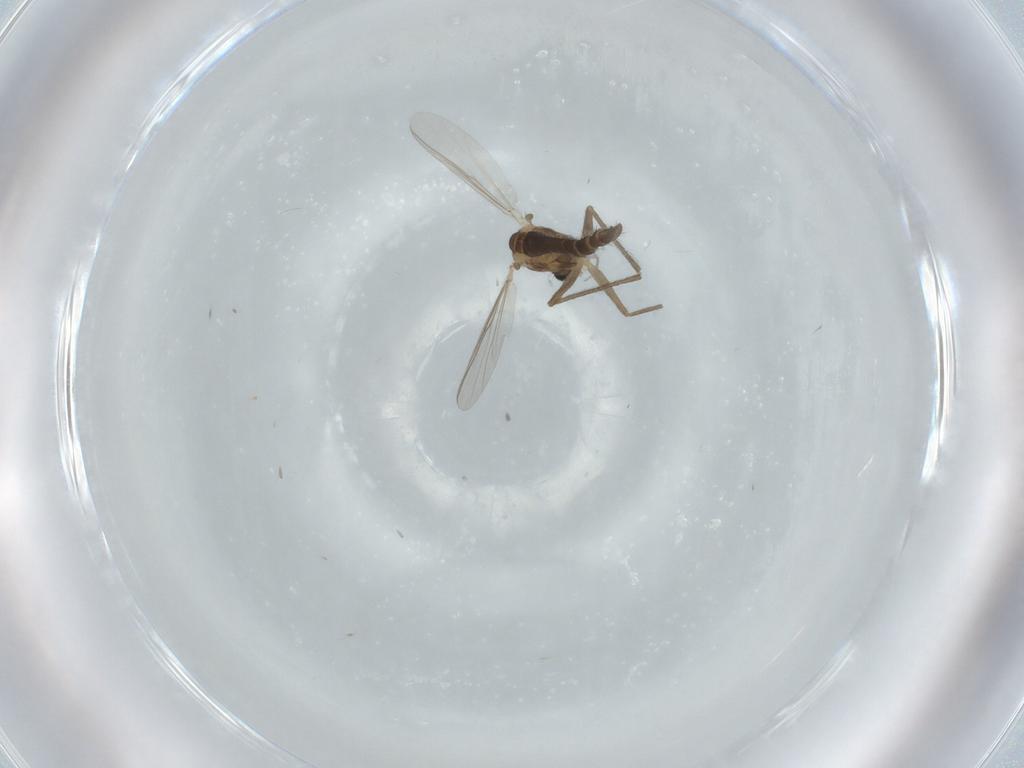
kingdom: Animalia
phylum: Arthropoda
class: Insecta
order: Diptera
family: Chironomidae
